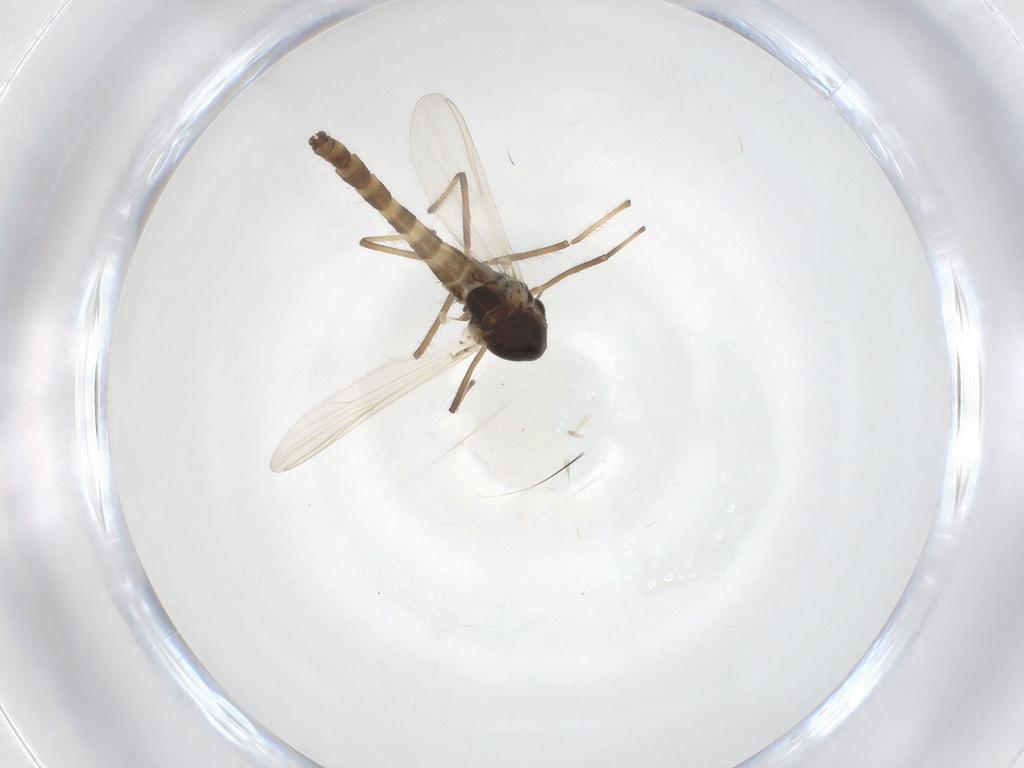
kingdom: Animalia
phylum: Arthropoda
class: Insecta
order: Diptera
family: Chironomidae
